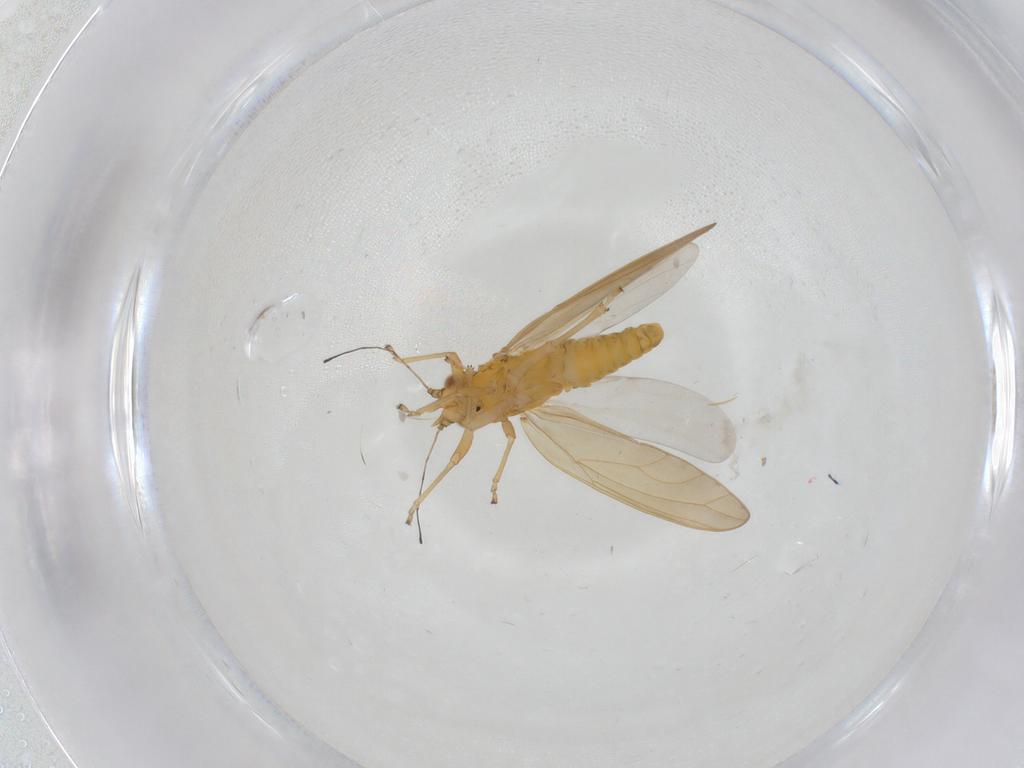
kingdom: Animalia
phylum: Arthropoda
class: Insecta
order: Hemiptera
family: Triozidae
